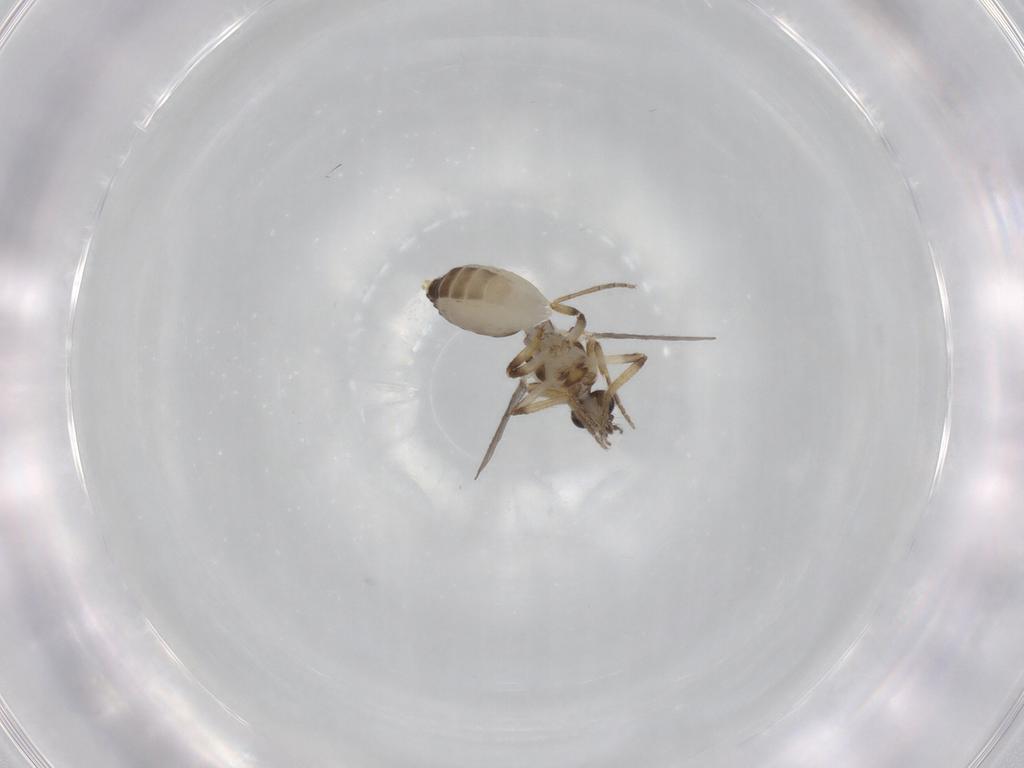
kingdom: Animalia
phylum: Arthropoda
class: Insecta
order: Diptera
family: Ceratopogonidae
